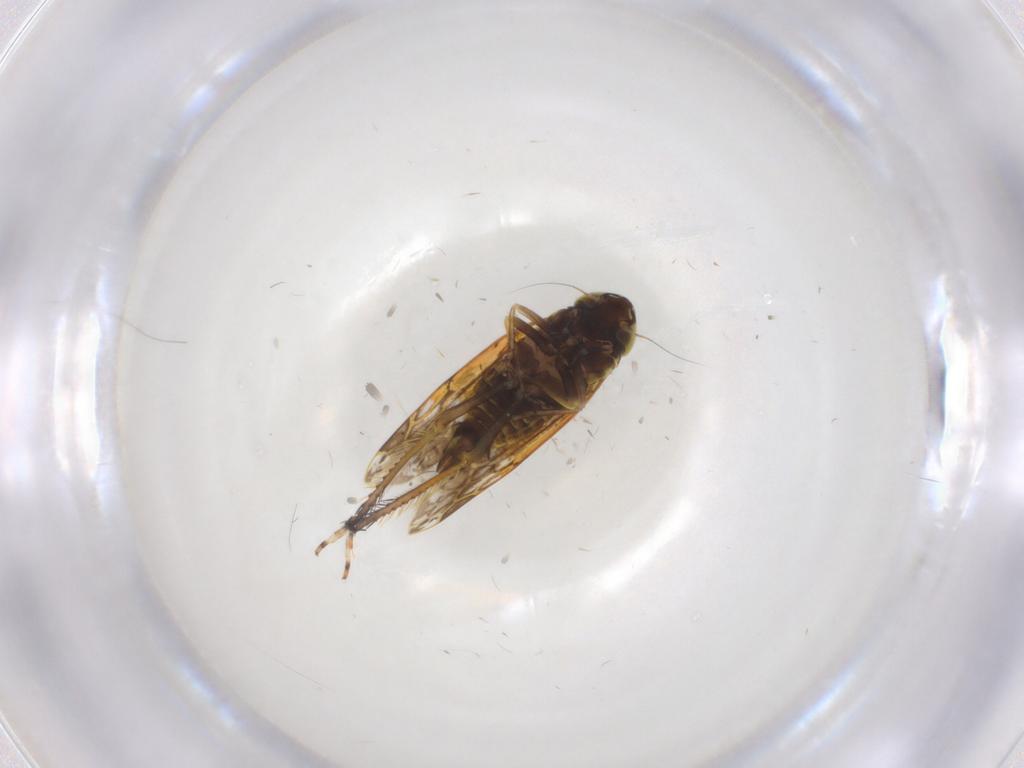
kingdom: Animalia
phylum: Arthropoda
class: Insecta
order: Hemiptera
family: Cicadellidae
